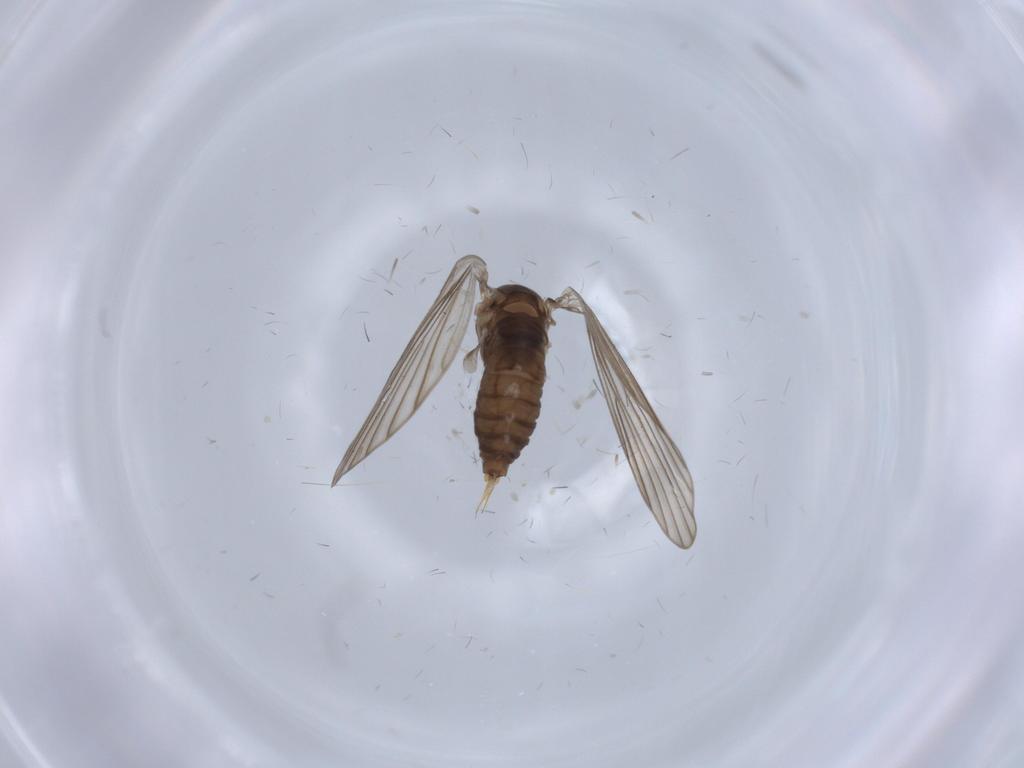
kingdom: Animalia
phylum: Arthropoda
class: Insecta
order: Diptera
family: Psychodidae
